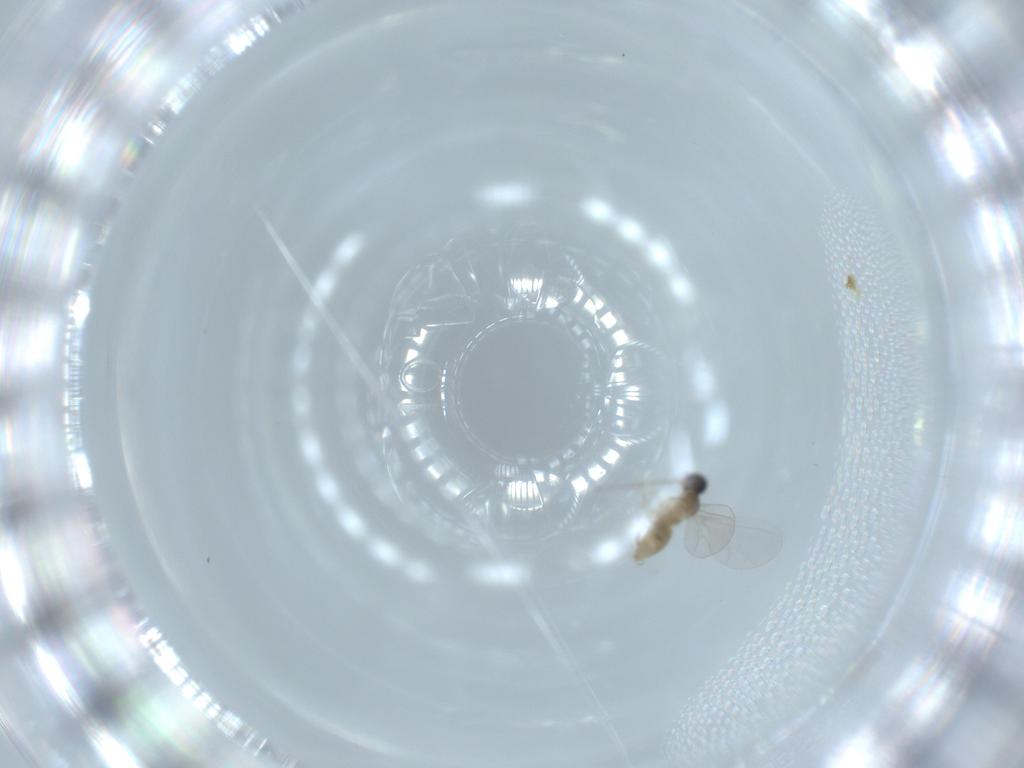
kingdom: Animalia
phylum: Arthropoda
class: Insecta
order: Diptera
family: Cecidomyiidae
